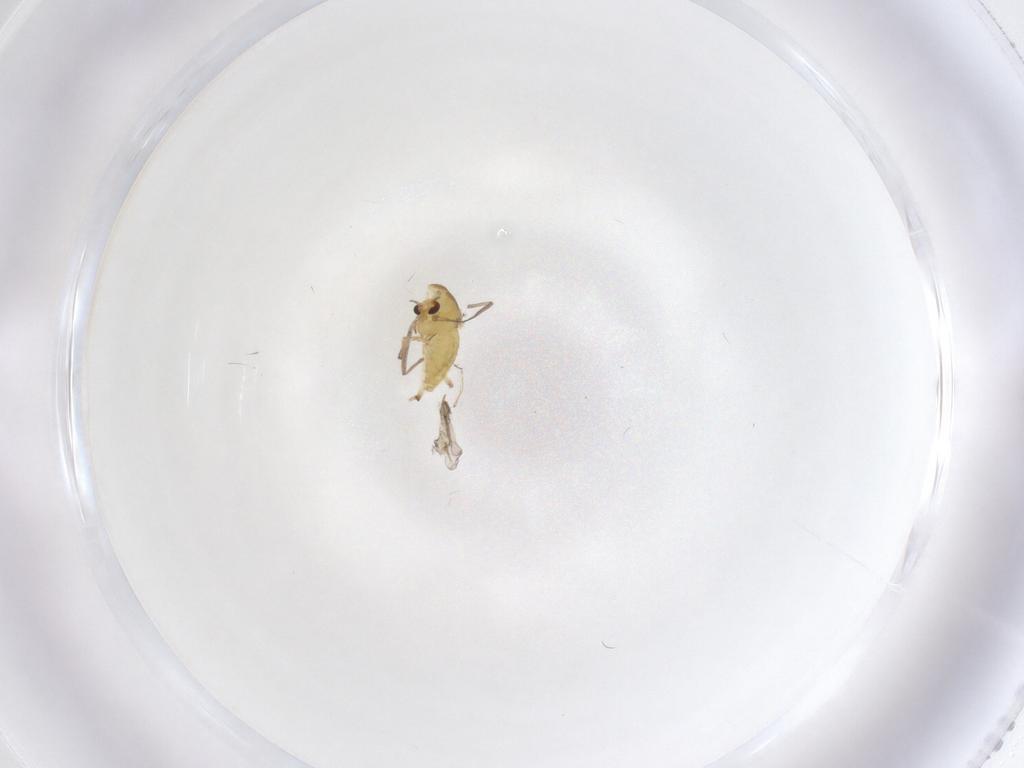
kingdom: Animalia
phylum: Arthropoda
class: Insecta
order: Diptera
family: Chironomidae
